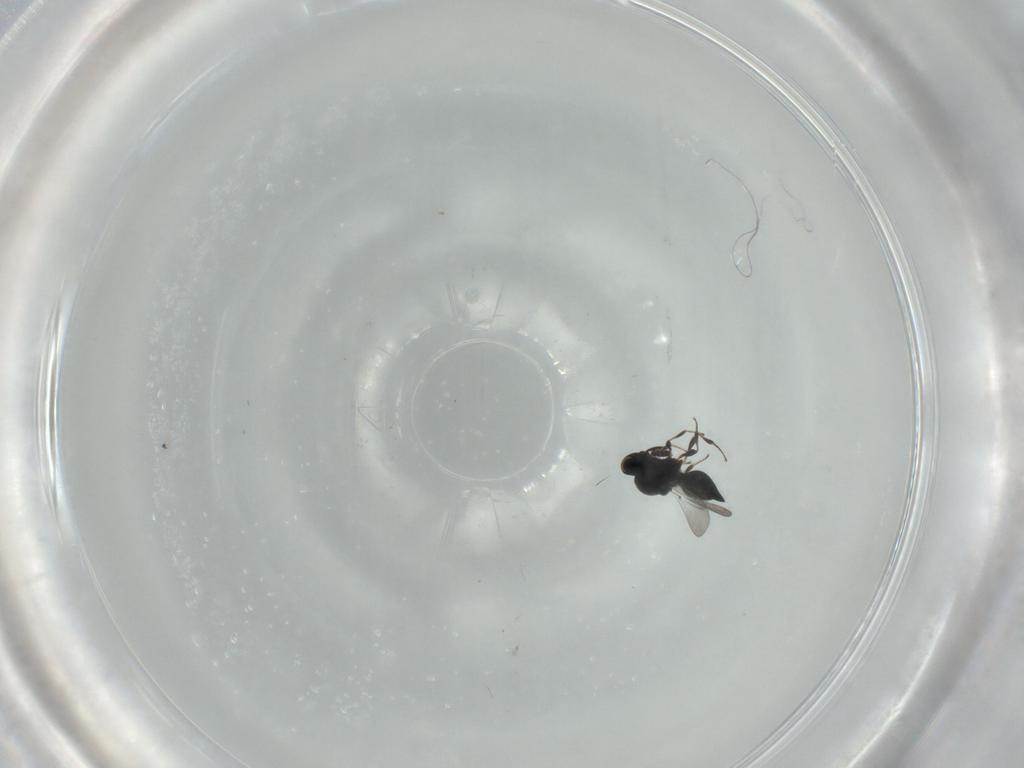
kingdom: Animalia
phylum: Arthropoda
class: Insecta
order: Hymenoptera
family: Platygastridae
